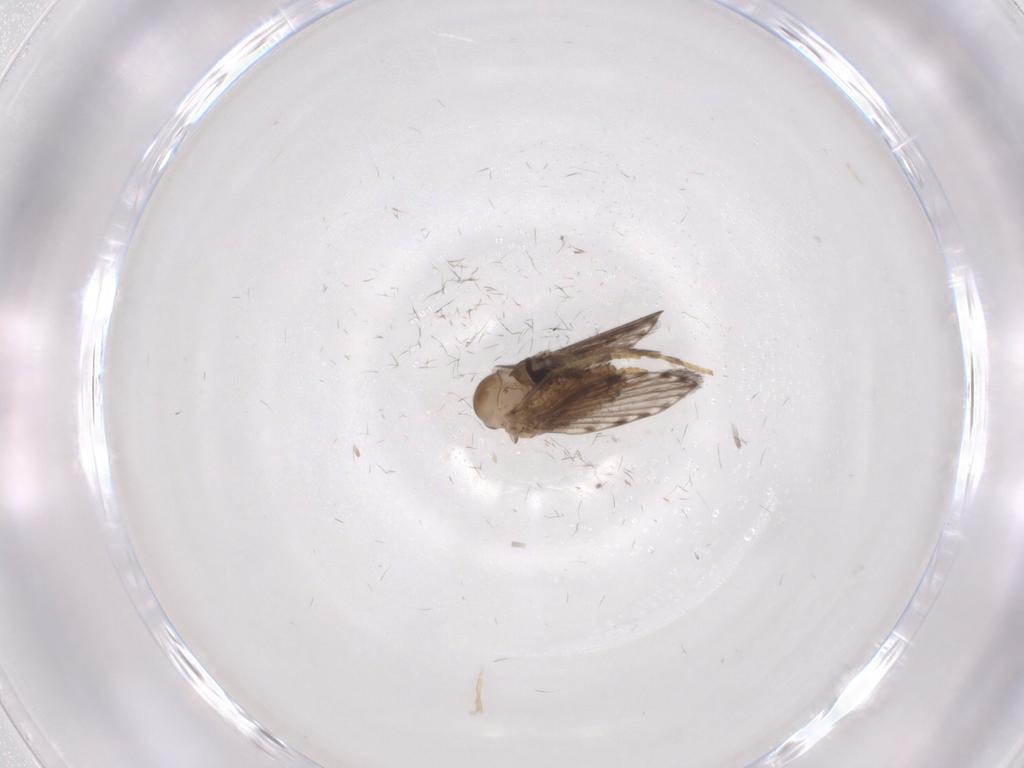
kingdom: Animalia
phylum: Arthropoda
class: Insecta
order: Diptera
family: Psychodidae
